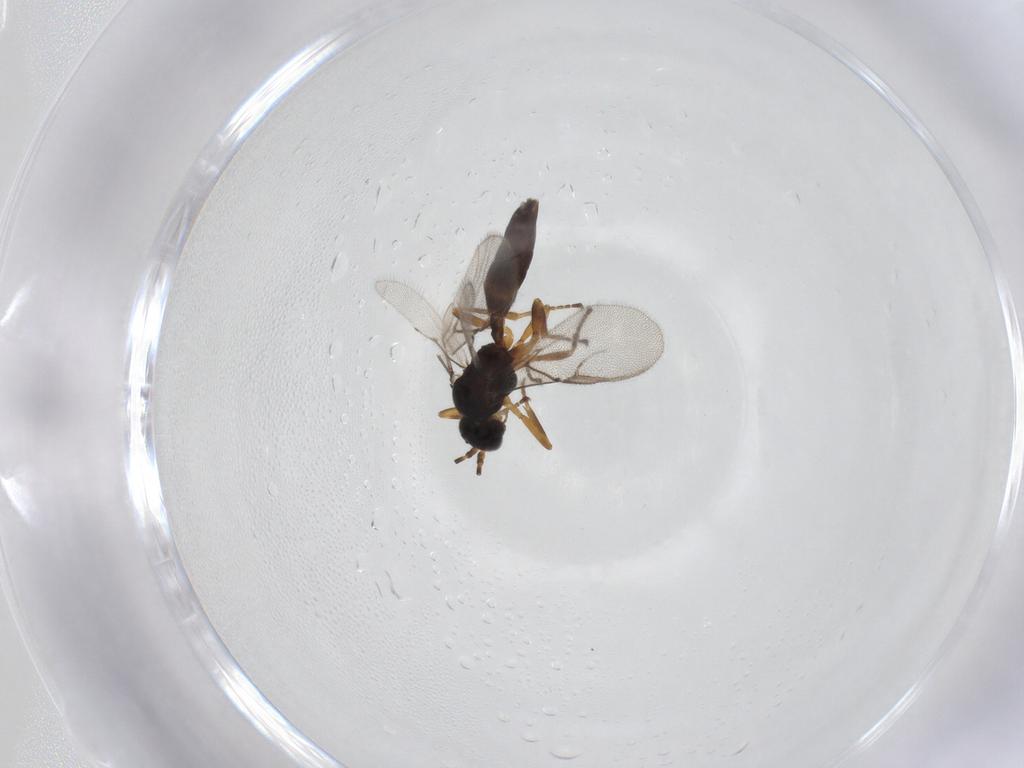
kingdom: Animalia
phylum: Arthropoda
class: Insecta
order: Hymenoptera
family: Braconidae
